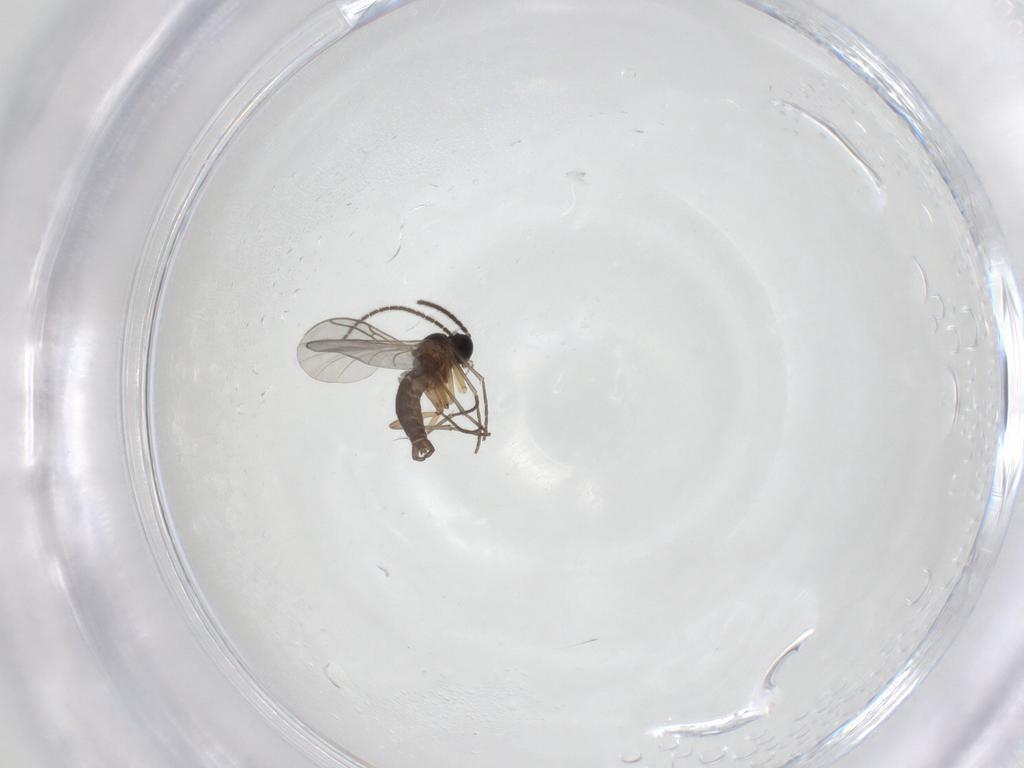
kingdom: Animalia
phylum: Arthropoda
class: Insecta
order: Diptera
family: Sciaridae
